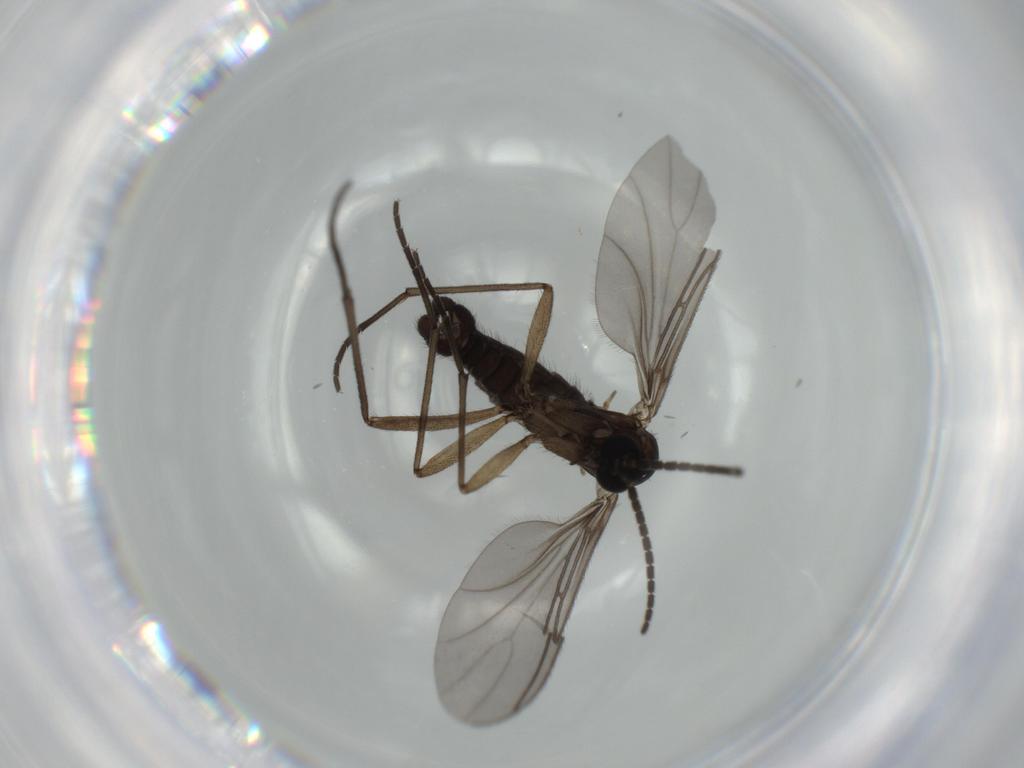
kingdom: Animalia
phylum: Arthropoda
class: Insecta
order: Diptera
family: Sciaridae
